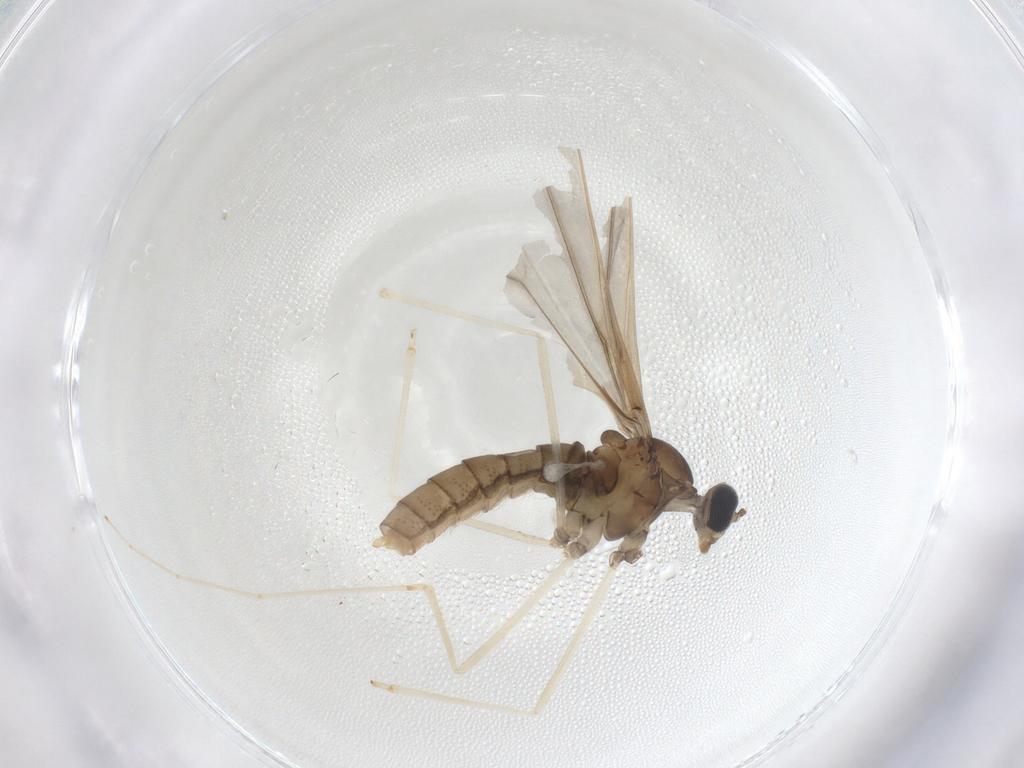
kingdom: Animalia
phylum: Arthropoda
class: Insecta
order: Diptera
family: Cecidomyiidae
